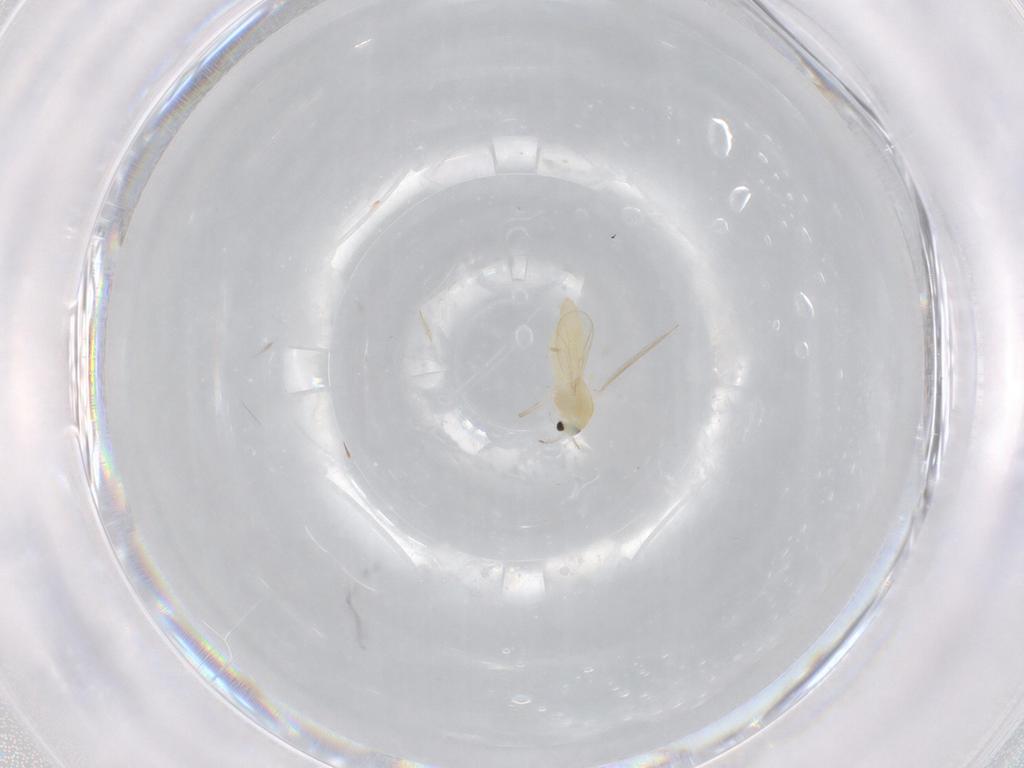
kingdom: Animalia
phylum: Arthropoda
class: Insecta
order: Diptera
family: Chironomidae
